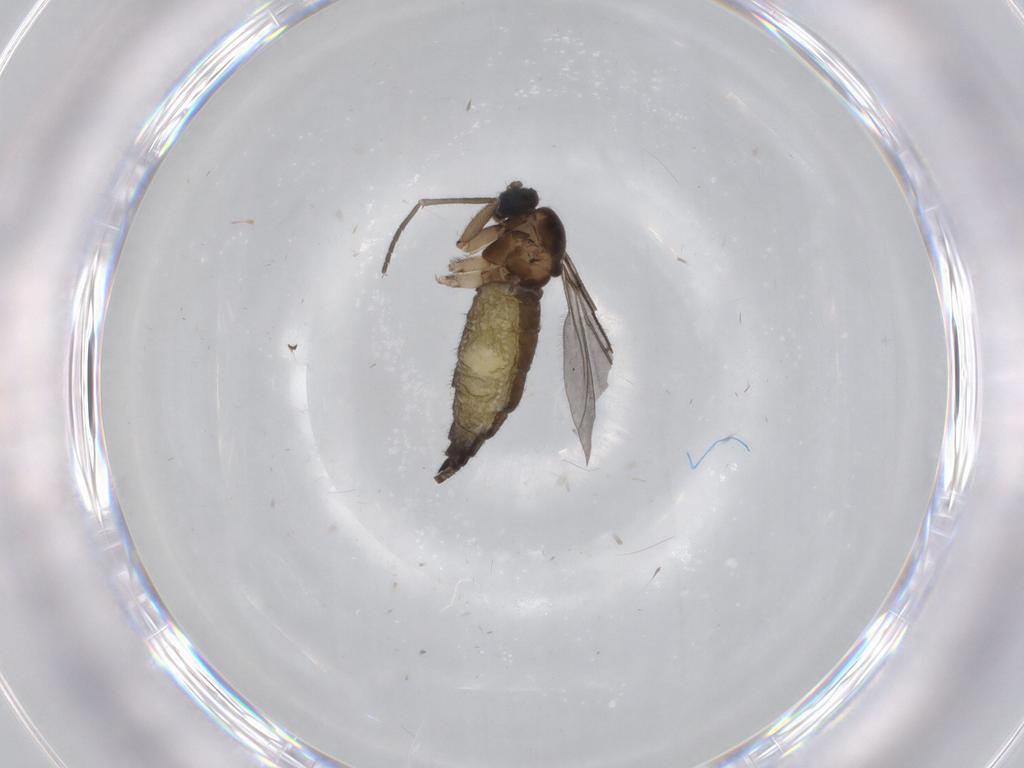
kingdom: Animalia
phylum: Arthropoda
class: Insecta
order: Diptera
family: Sciaridae
